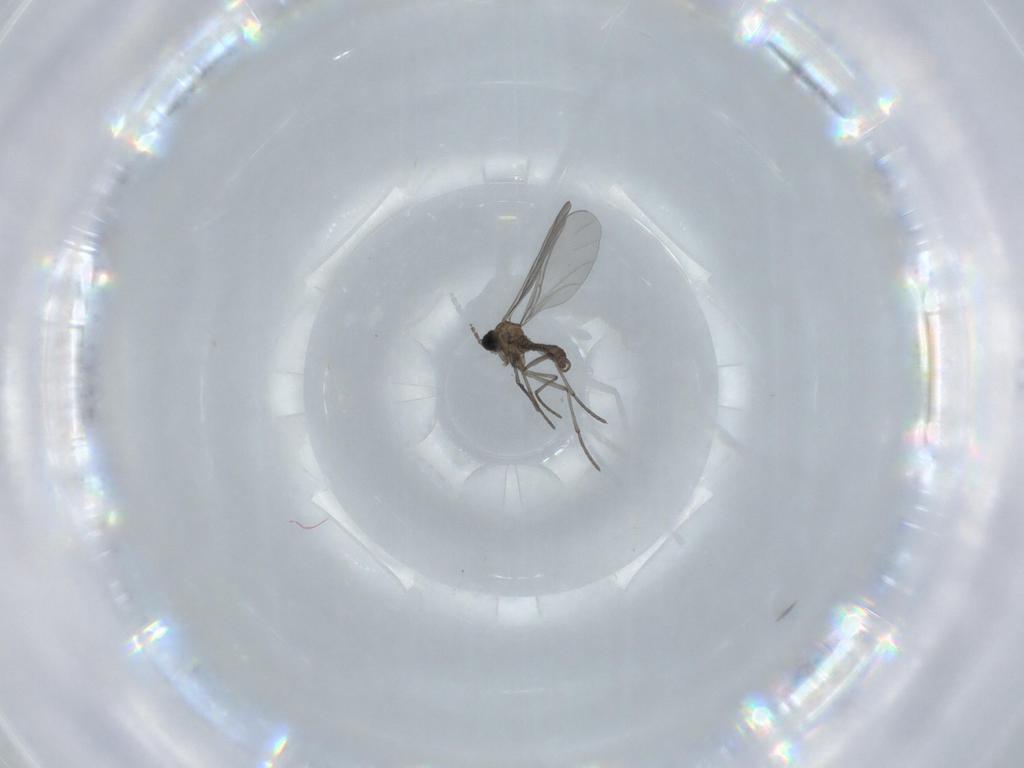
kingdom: Animalia
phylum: Arthropoda
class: Insecta
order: Diptera
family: Sciaridae
